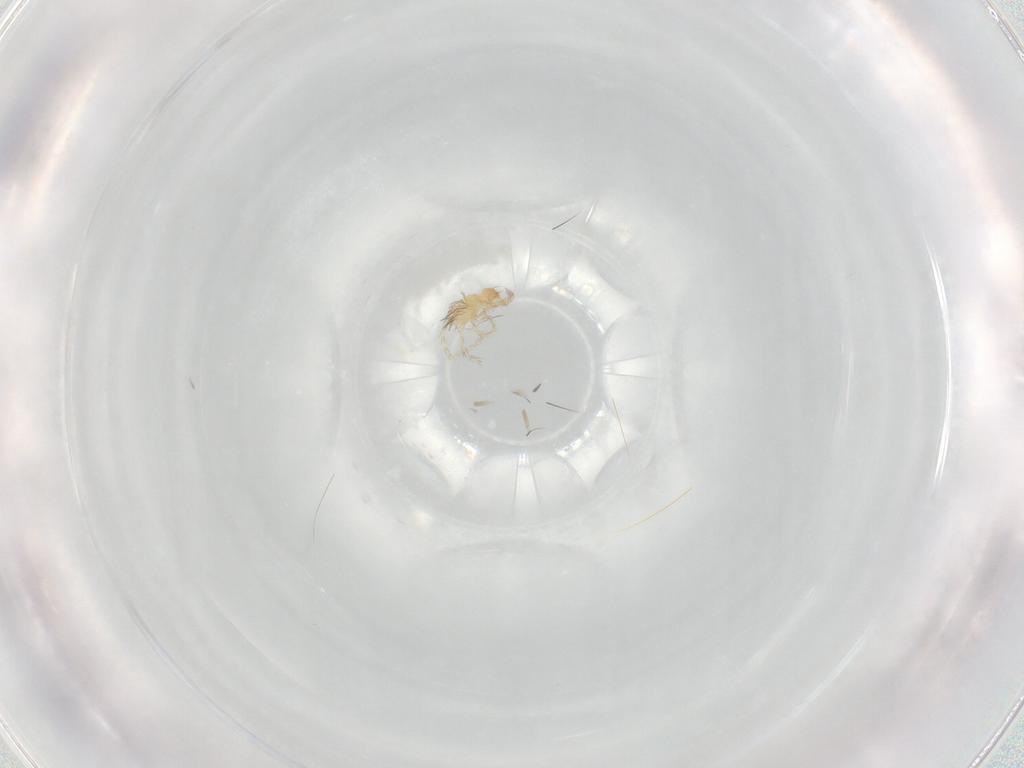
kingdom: Animalia
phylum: Arthropoda
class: Arachnida
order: Trombidiformes
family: Erythraeidae
